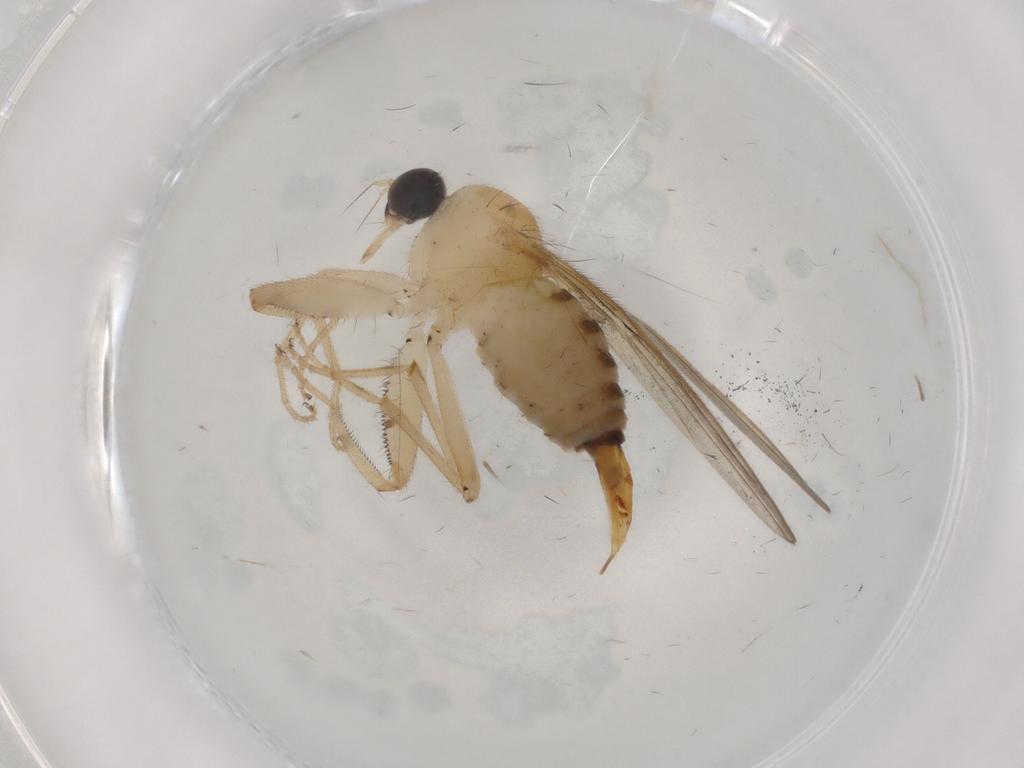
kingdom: Animalia
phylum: Arthropoda
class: Insecta
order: Diptera
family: Hybotidae
